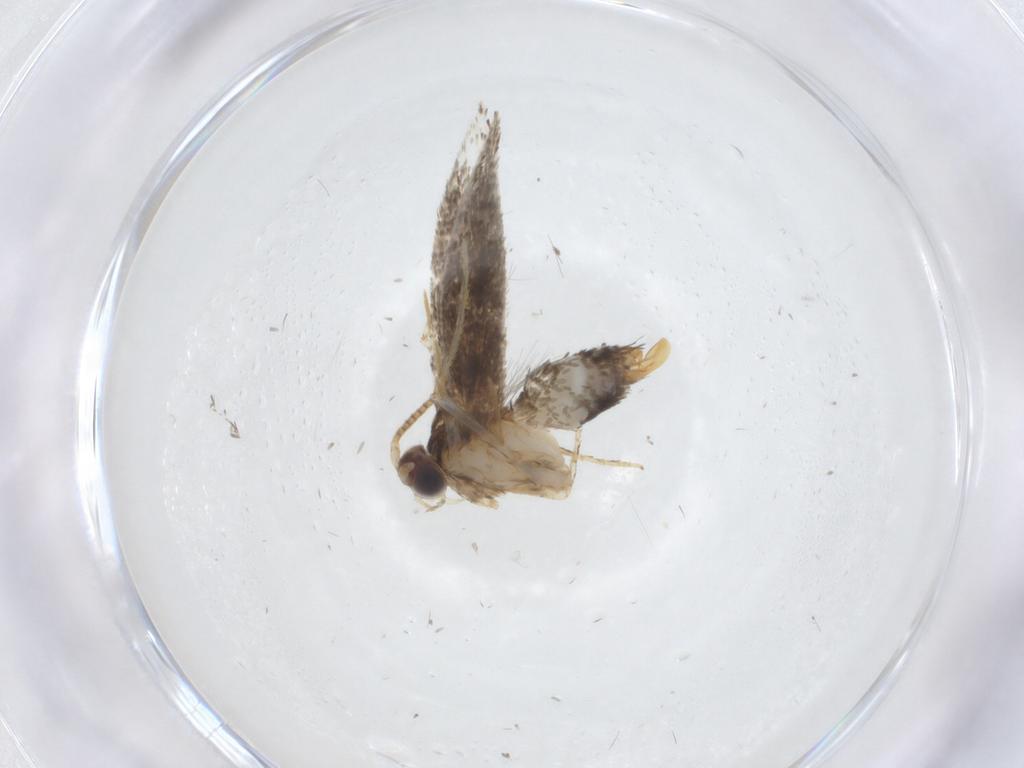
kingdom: Animalia
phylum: Arthropoda
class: Insecta
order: Lepidoptera
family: Tineidae
